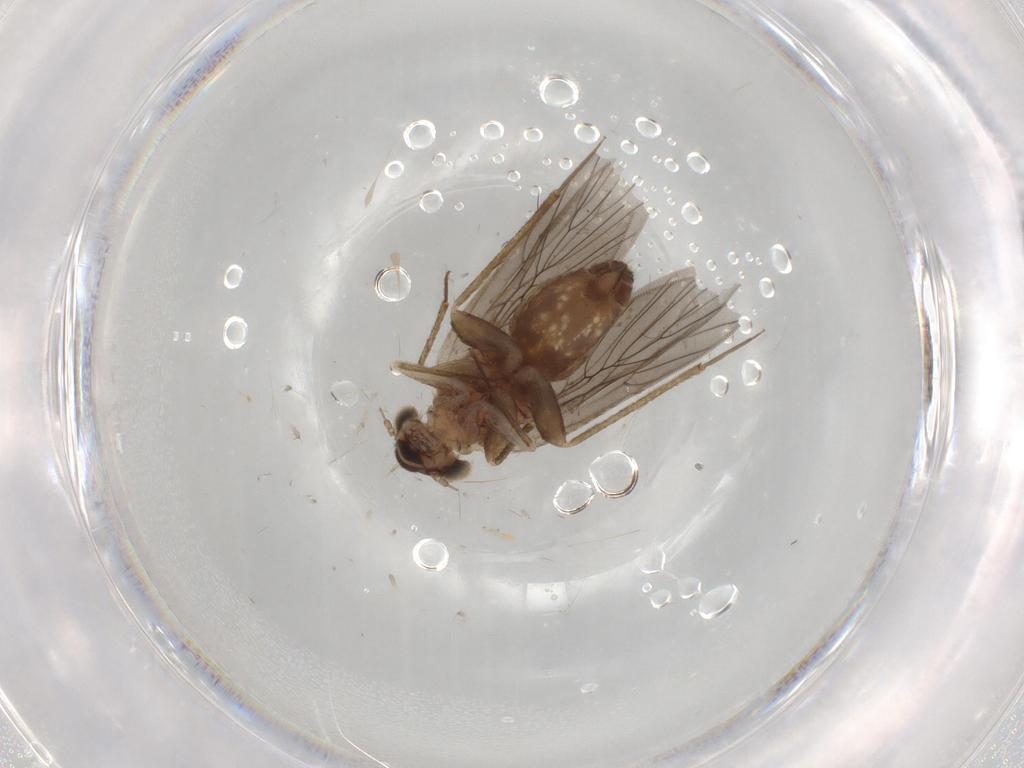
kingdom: Animalia
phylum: Arthropoda
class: Insecta
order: Psocodea
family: Lepidopsocidae
